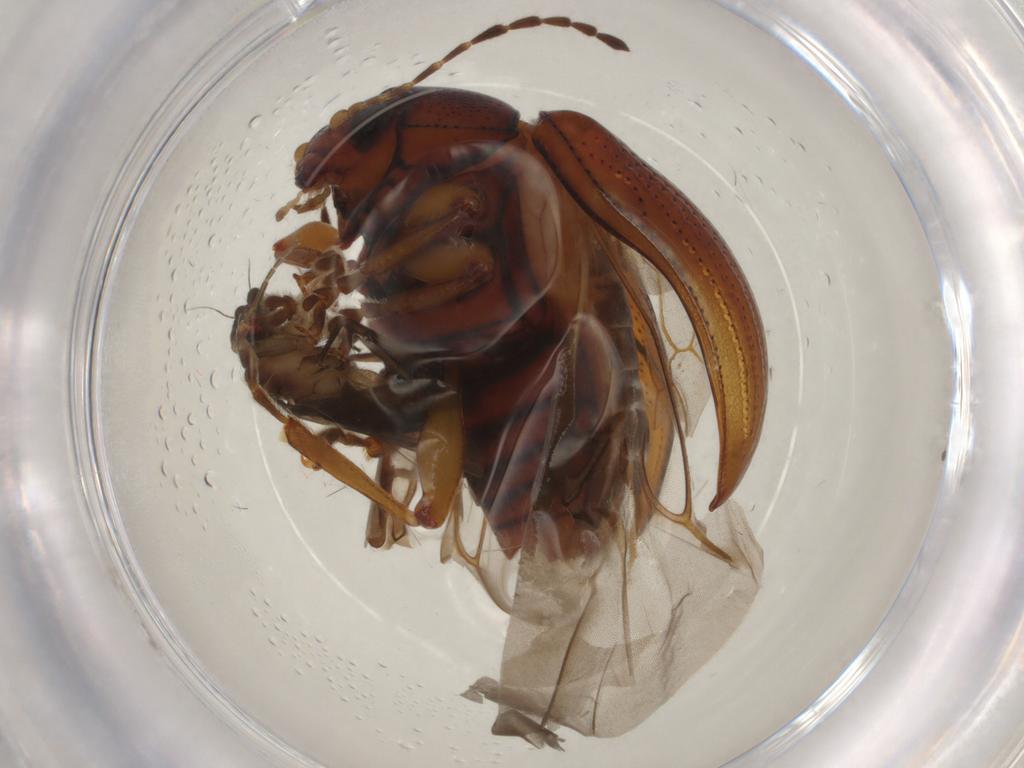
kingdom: Animalia
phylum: Arthropoda
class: Insecta
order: Diptera
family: Phoridae
